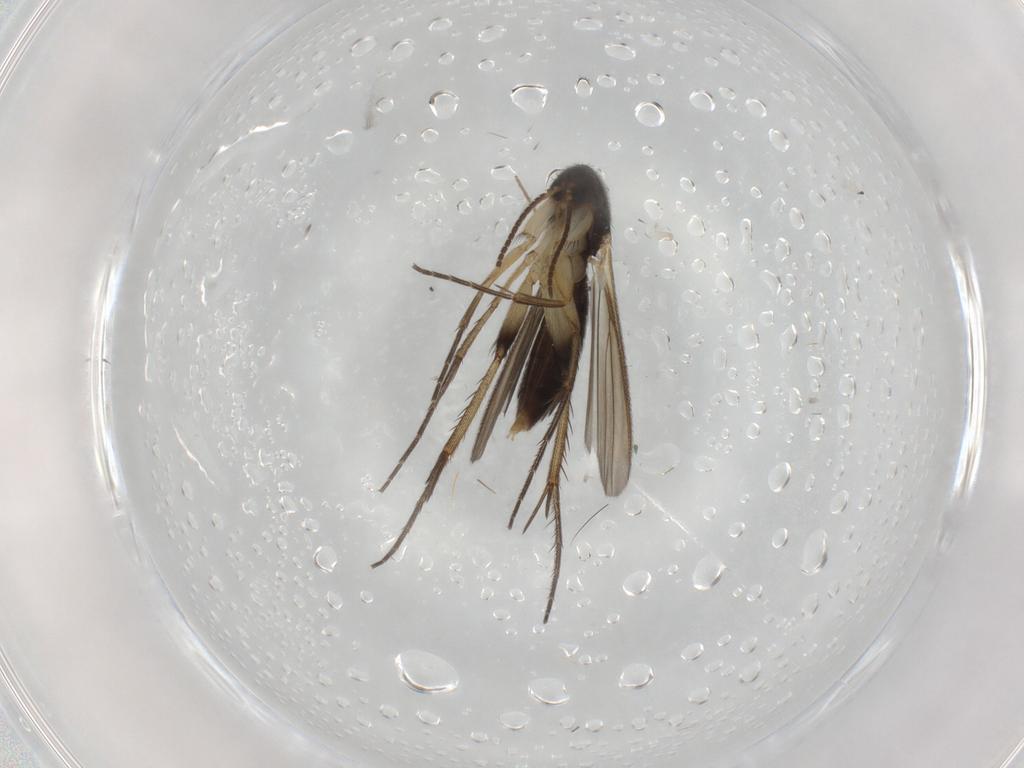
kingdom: Animalia
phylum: Arthropoda
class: Insecta
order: Diptera
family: Mycetophilidae
